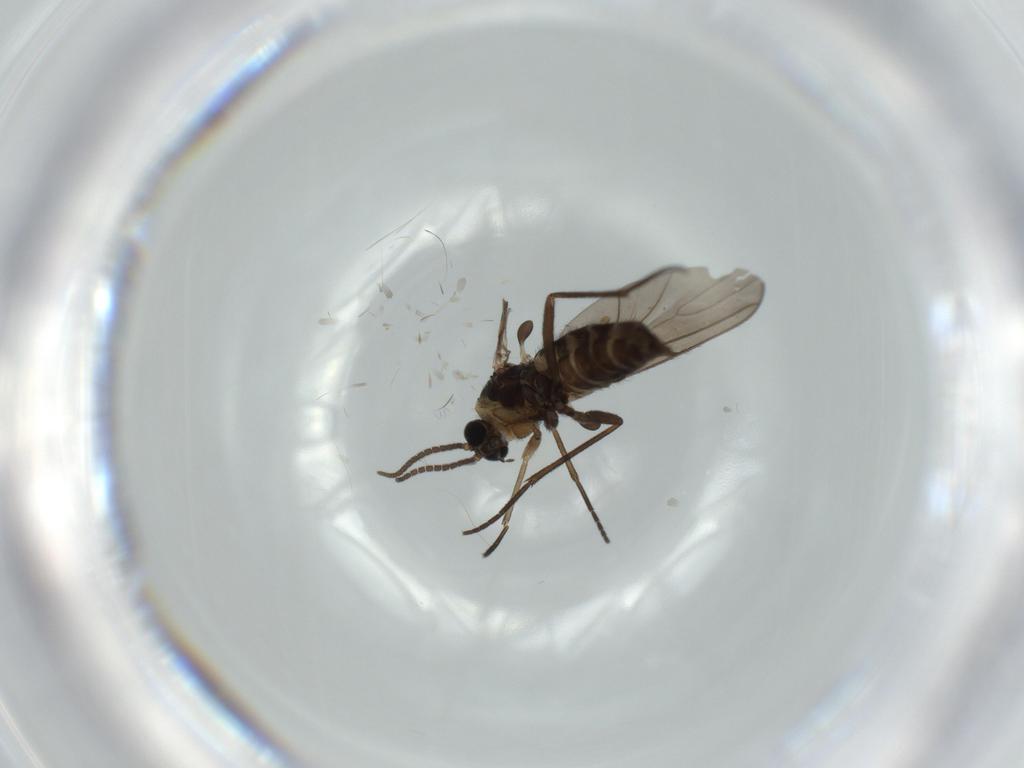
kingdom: Animalia
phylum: Arthropoda
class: Insecta
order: Diptera
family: Sciaridae
